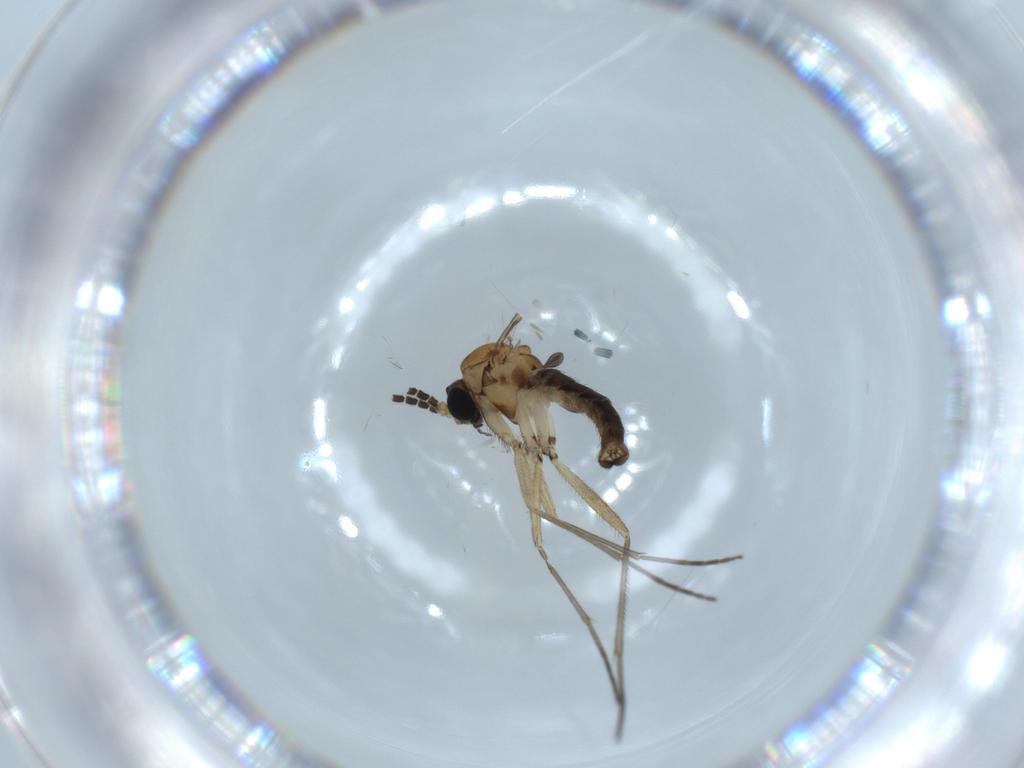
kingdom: Animalia
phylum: Arthropoda
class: Insecta
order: Diptera
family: Sciaridae
